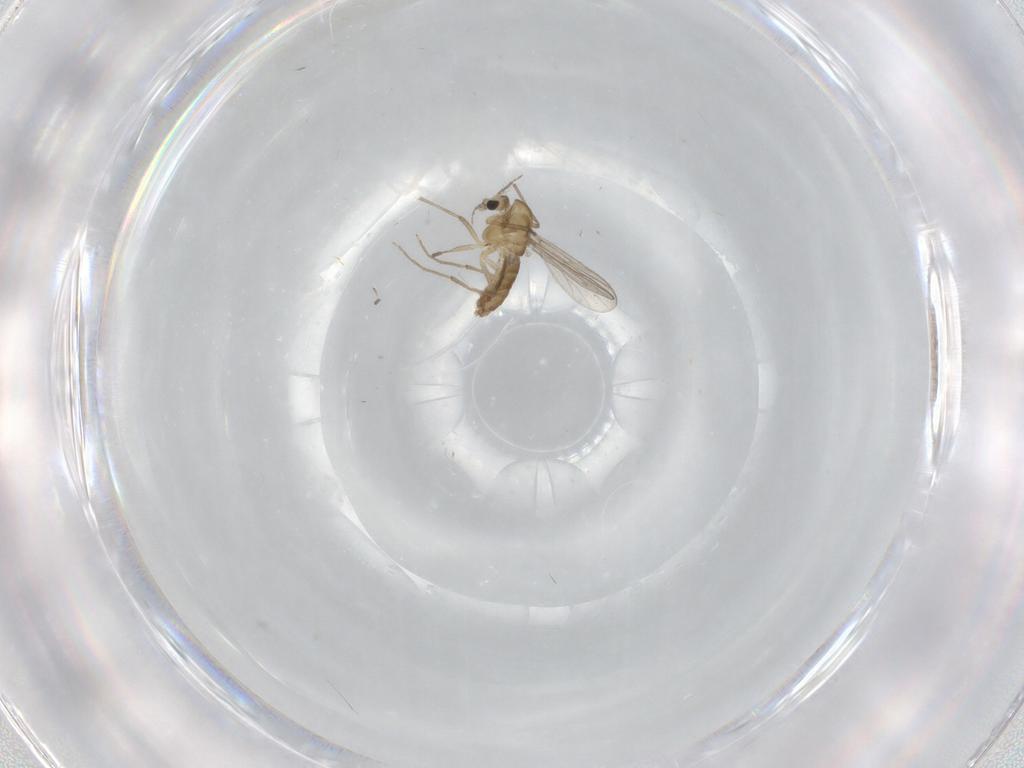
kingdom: Animalia
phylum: Arthropoda
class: Insecta
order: Diptera
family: Chironomidae
